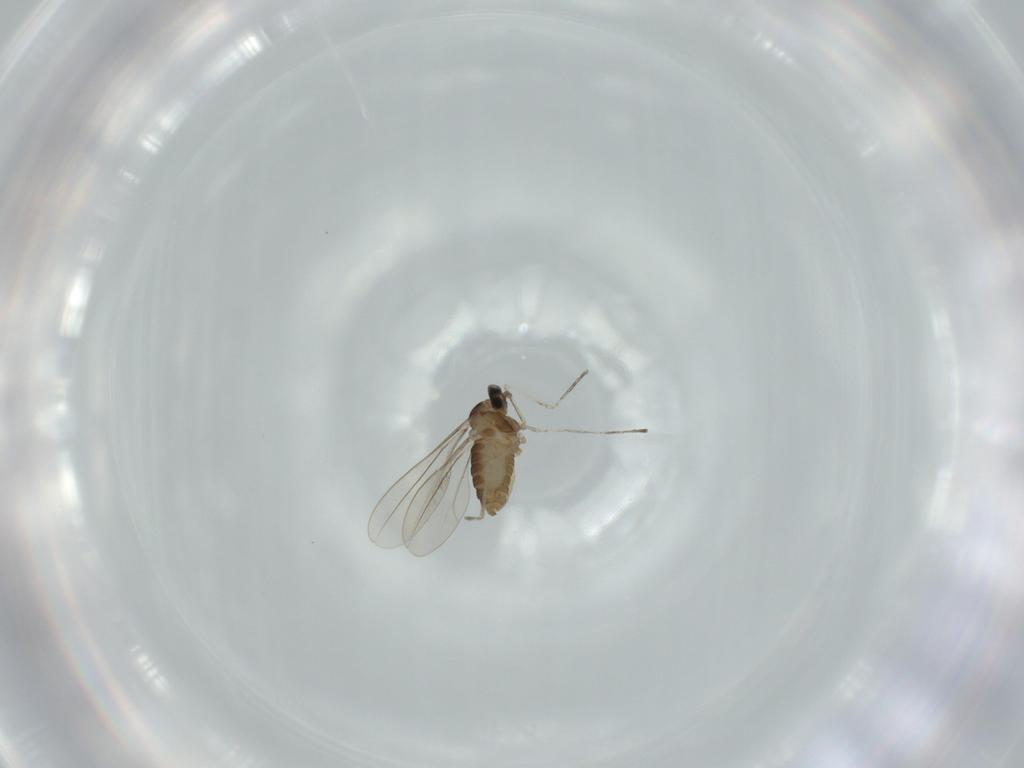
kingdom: Animalia
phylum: Arthropoda
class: Insecta
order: Diptera
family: Cecidomyiidae
